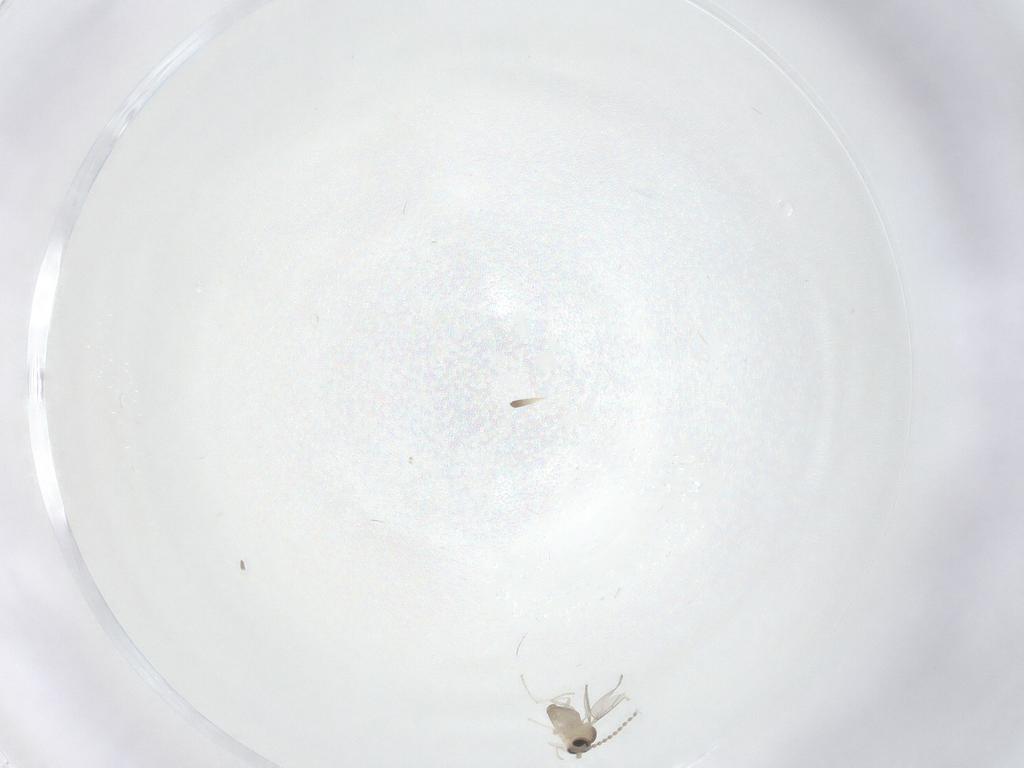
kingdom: Animalia
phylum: Arthropoda
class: Insecta
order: Diptera
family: Cecidomyiidae
